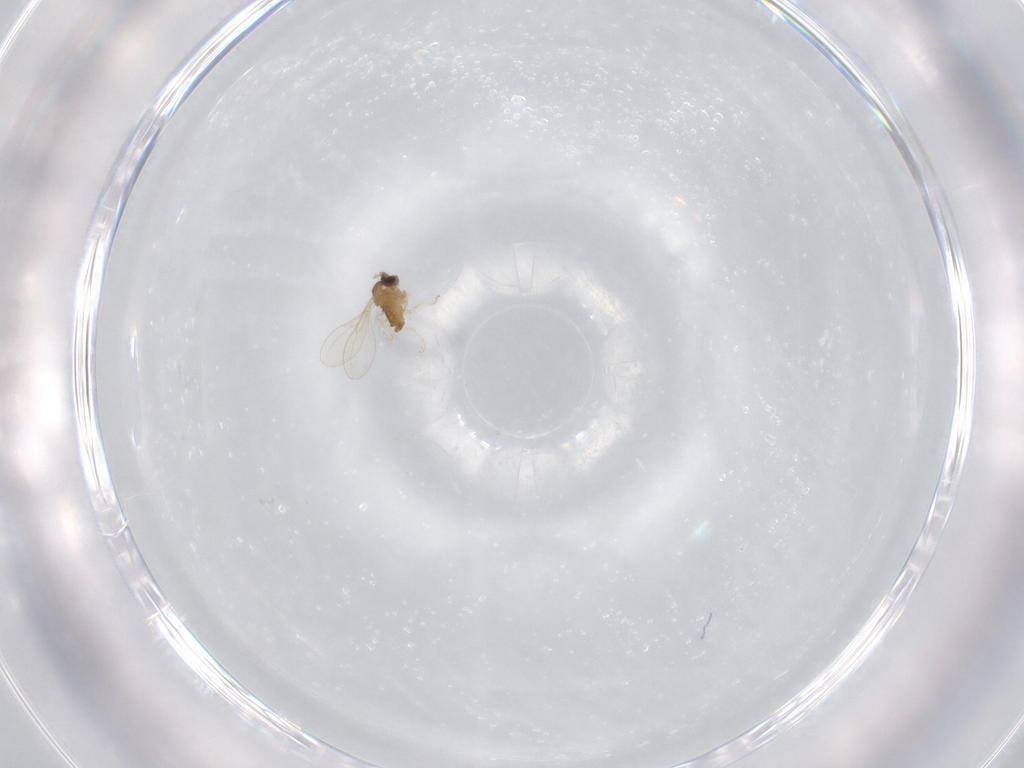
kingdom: Animalia
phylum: Arthropoda
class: Insecta
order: Diptera
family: Cecidomyiidae
